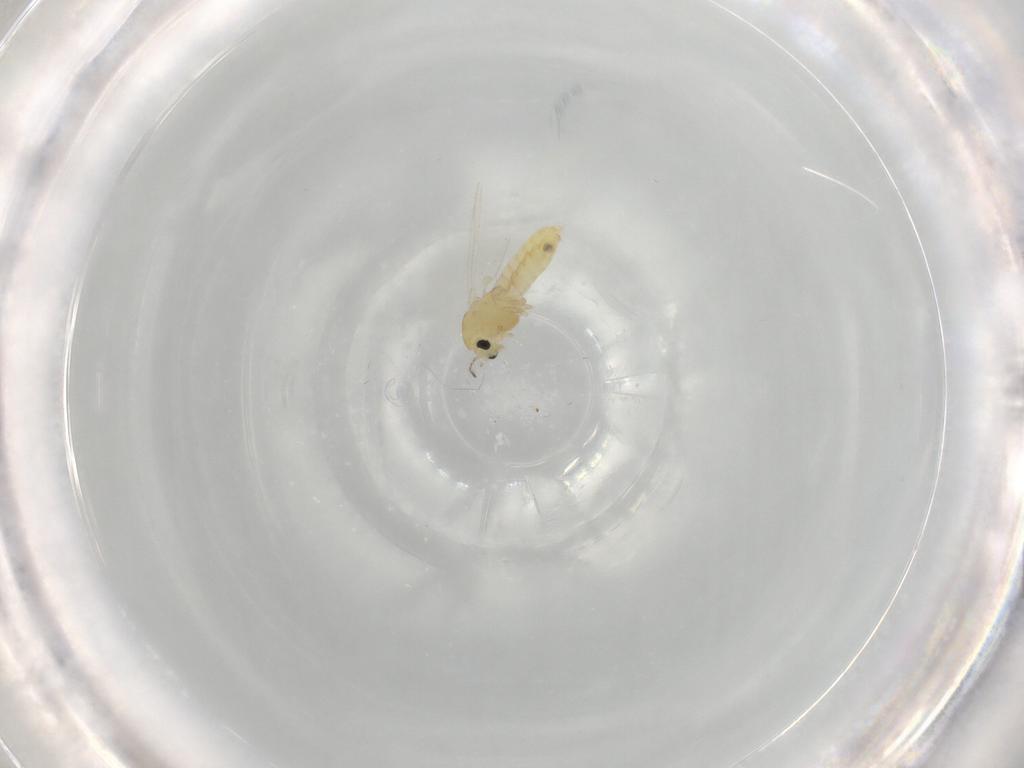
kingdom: Animalia
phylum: Arthropoda
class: Insecta
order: Diptera
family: Chironomidae
